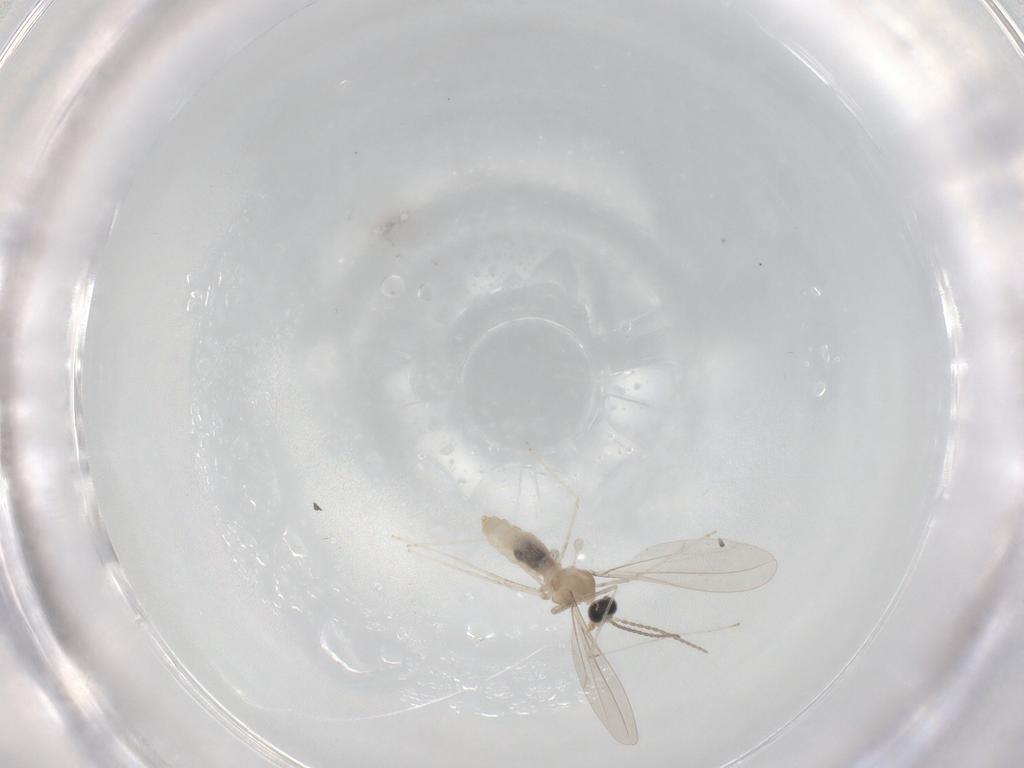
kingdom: Animalia
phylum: Arthropoda
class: Insecta
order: Diptera
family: Phoridae
